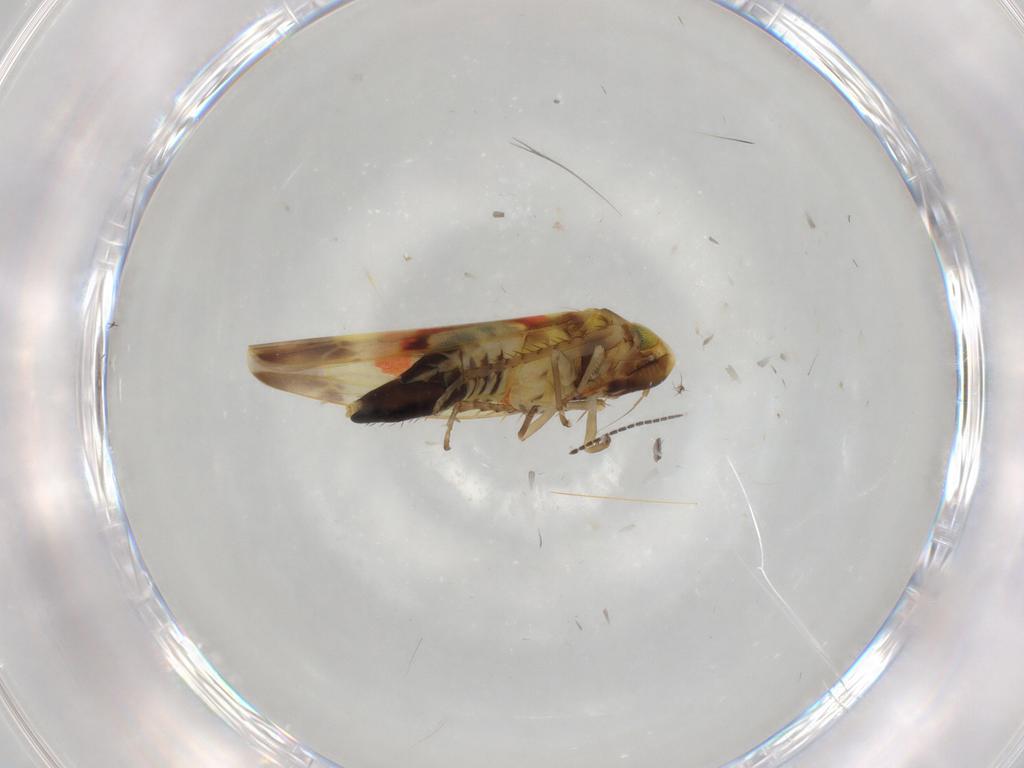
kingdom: Animalia
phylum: Arthropoda
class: Insecta
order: Hemiptera
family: Cicadellidae
